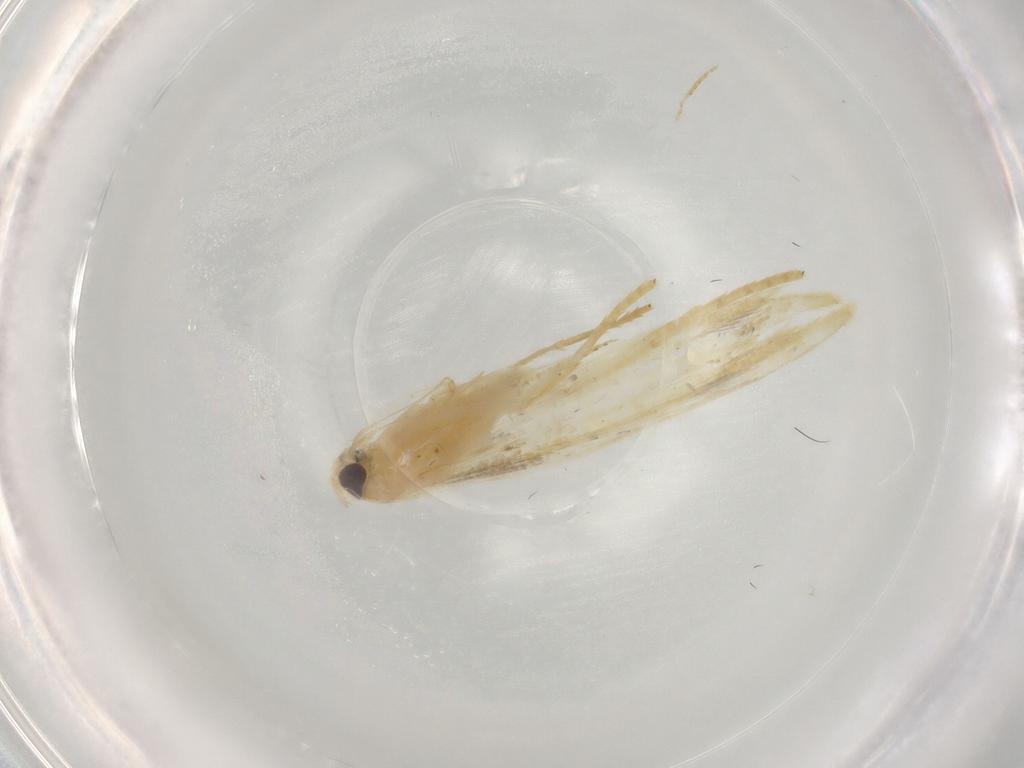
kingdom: Animalia
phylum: Arthropoda
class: Insecta
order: Lepidoptera
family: Oecophoridae
